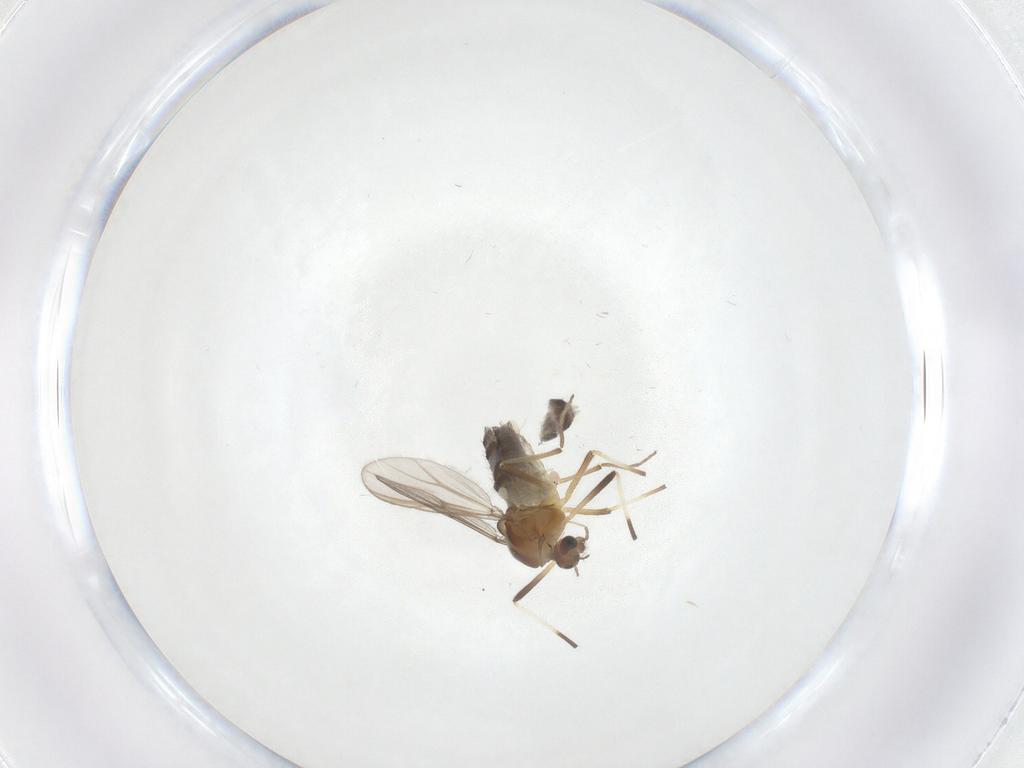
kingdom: Animalia
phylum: Arthropoda
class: Insecta
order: Diptera
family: Chironomidae
